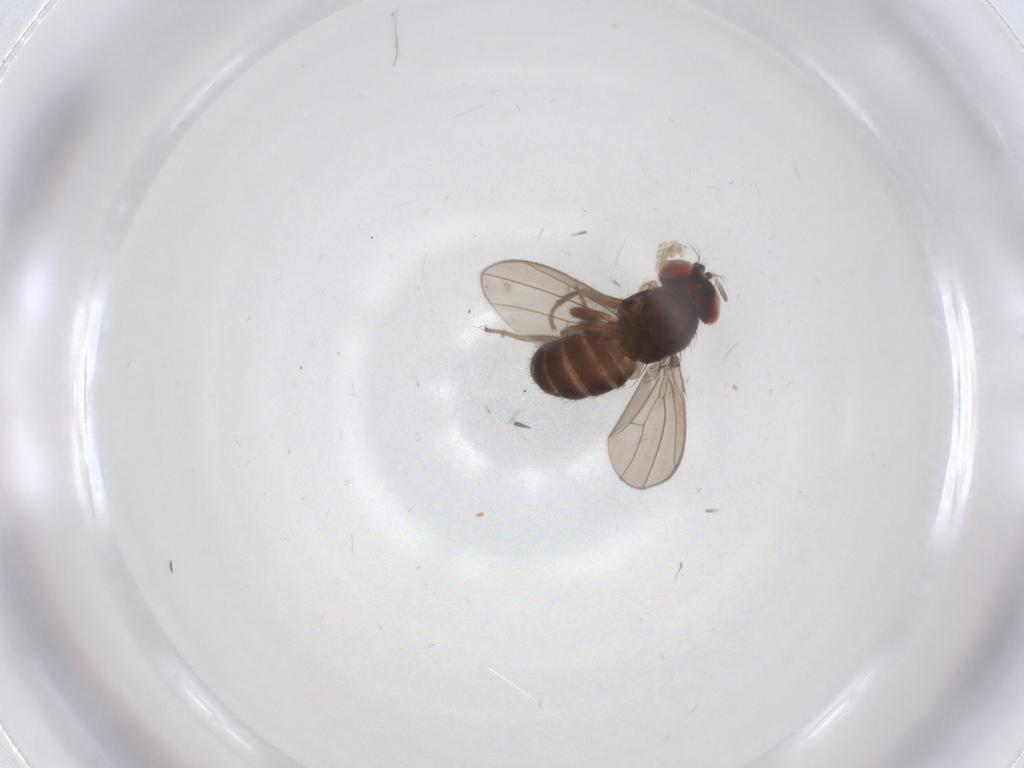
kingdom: Animalia
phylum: Arthropoda
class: Insecta
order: Diptera
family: Drosophilidae
